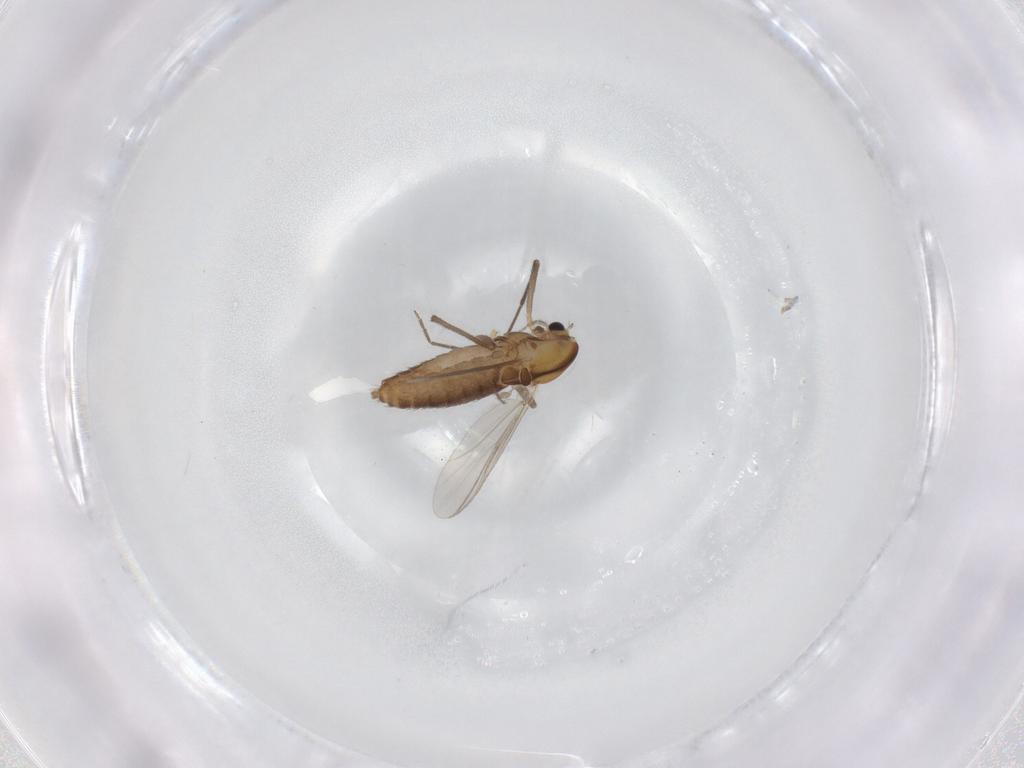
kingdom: Animalia
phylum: Arthropoda
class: Insecta
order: Diptera
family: Chironomidae
